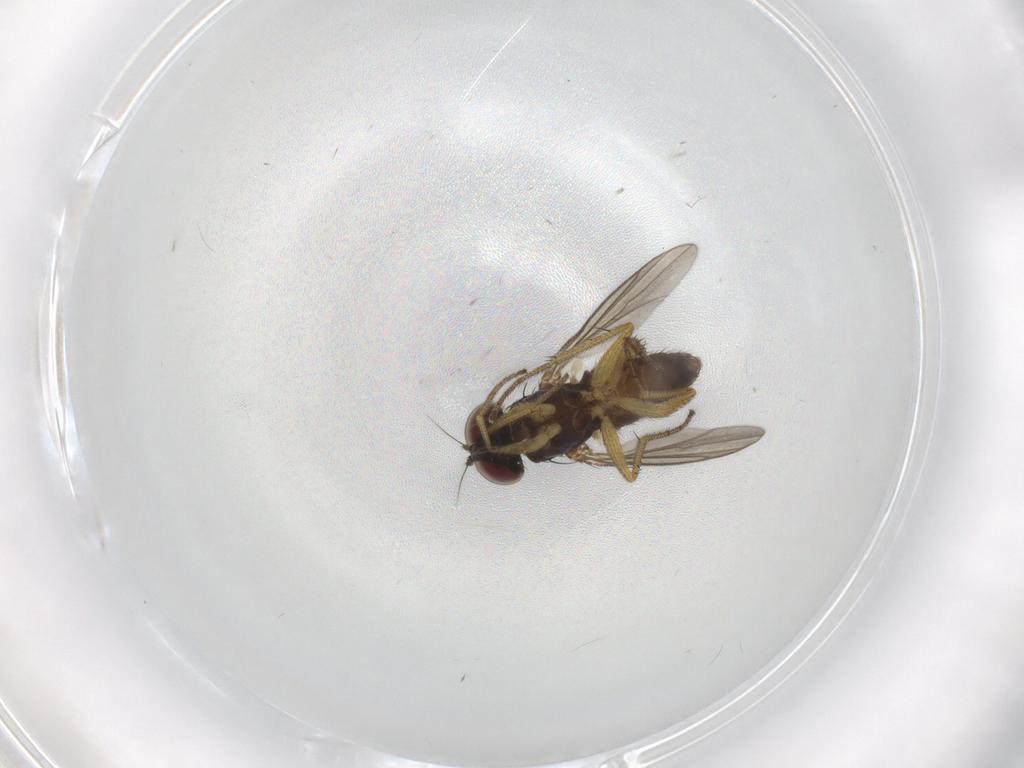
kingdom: Animalia
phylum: Arthropoda
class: Insecta
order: Diptera
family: Dolichopodidae
